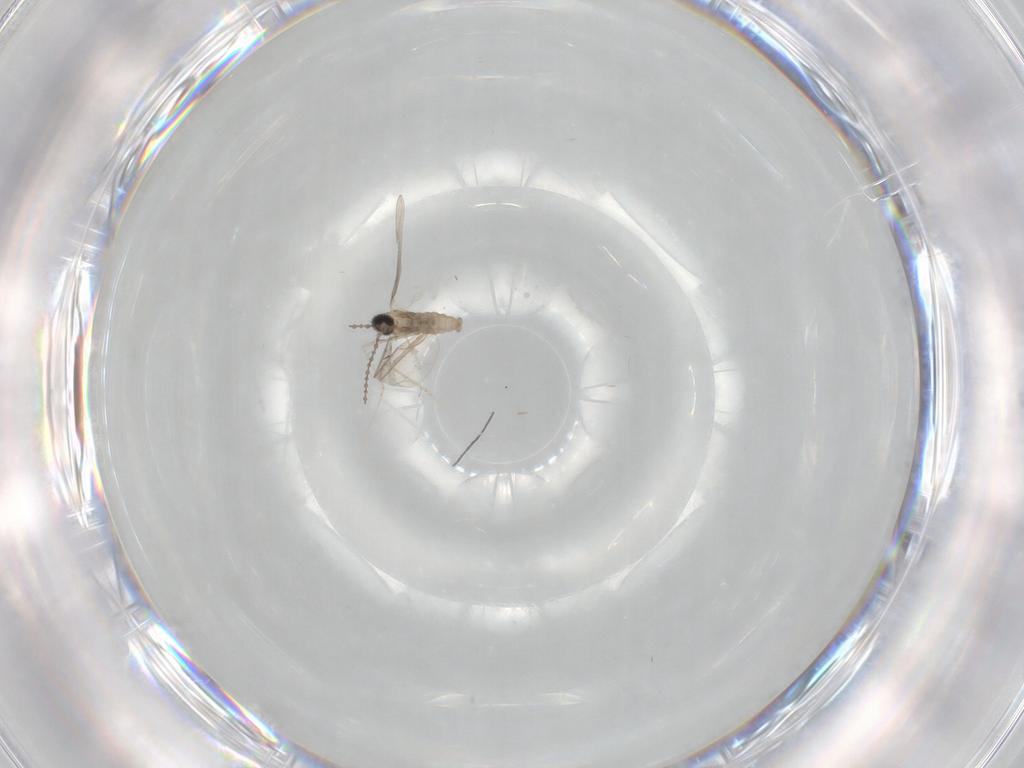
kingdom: Animalia
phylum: Arthropoda
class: Insecta
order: Diptera
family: Cecidomyiidae
